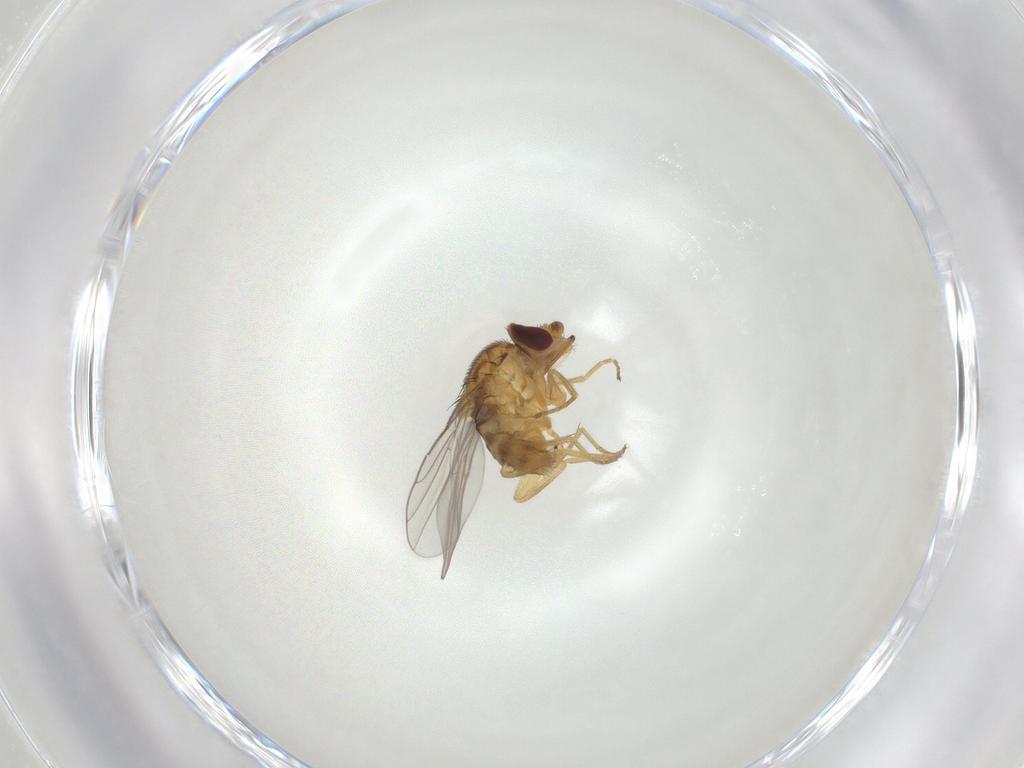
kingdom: Animalia
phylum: Arthropoda
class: Insecta
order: Diptera
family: Chloropidae
